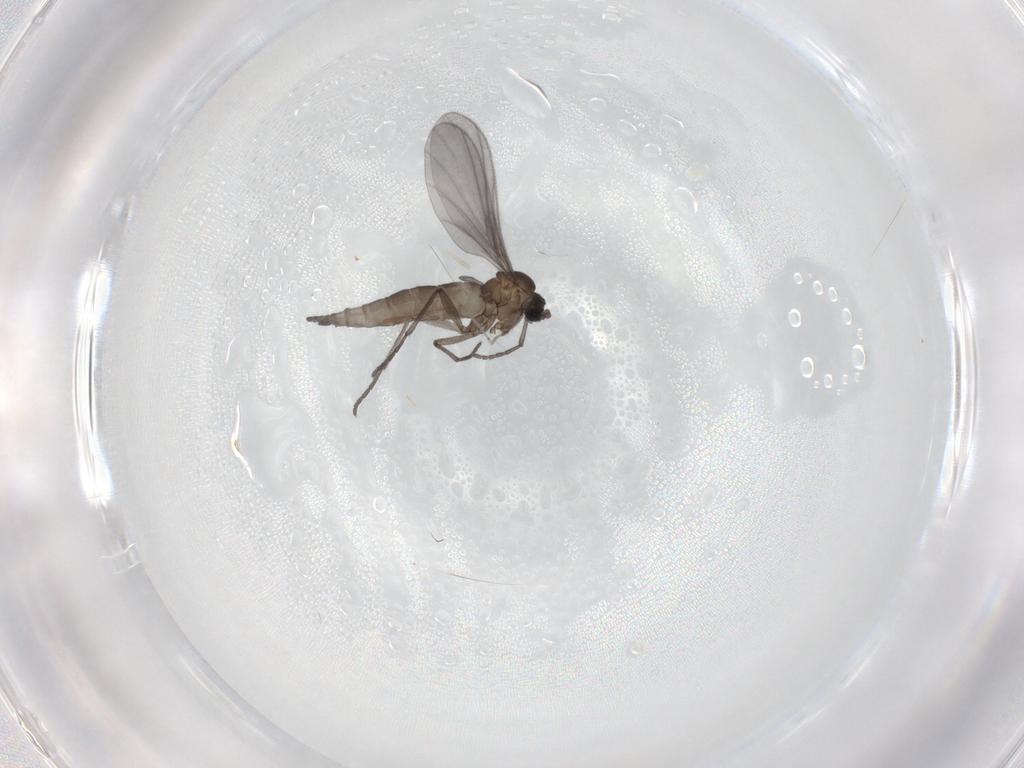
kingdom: Animalia
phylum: Arthropoda
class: Insecta
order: Diptera
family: Sciaridae
